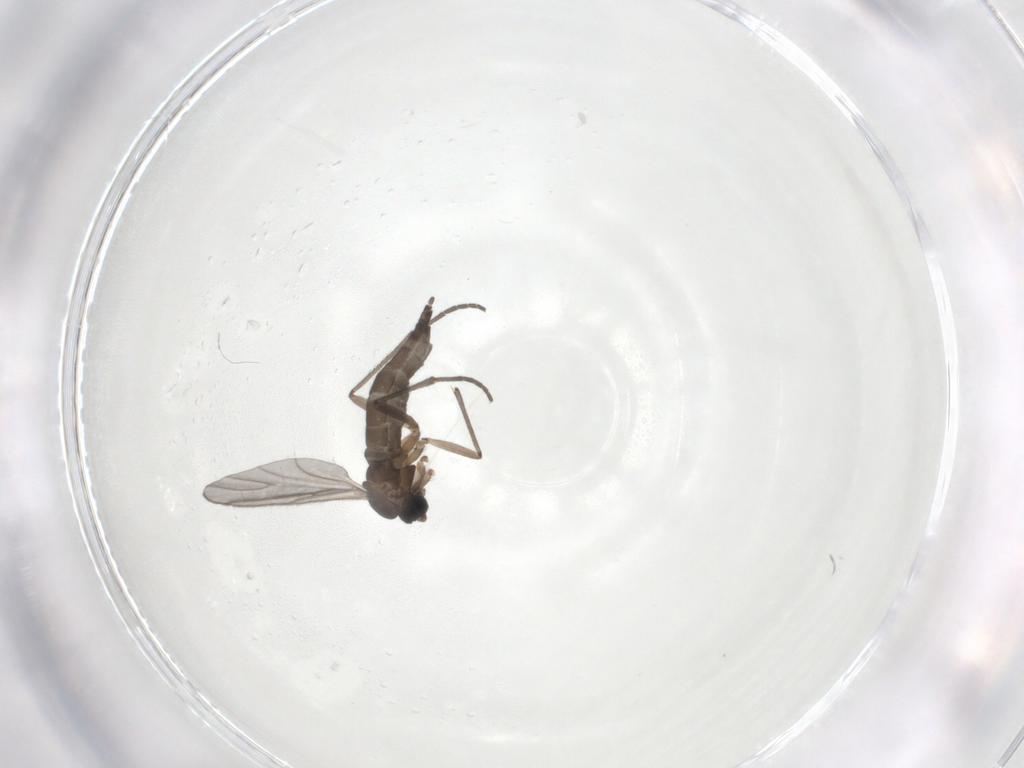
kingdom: Animalia
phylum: Arthropoda
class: Insecta
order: Diptera
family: Sciaridae
